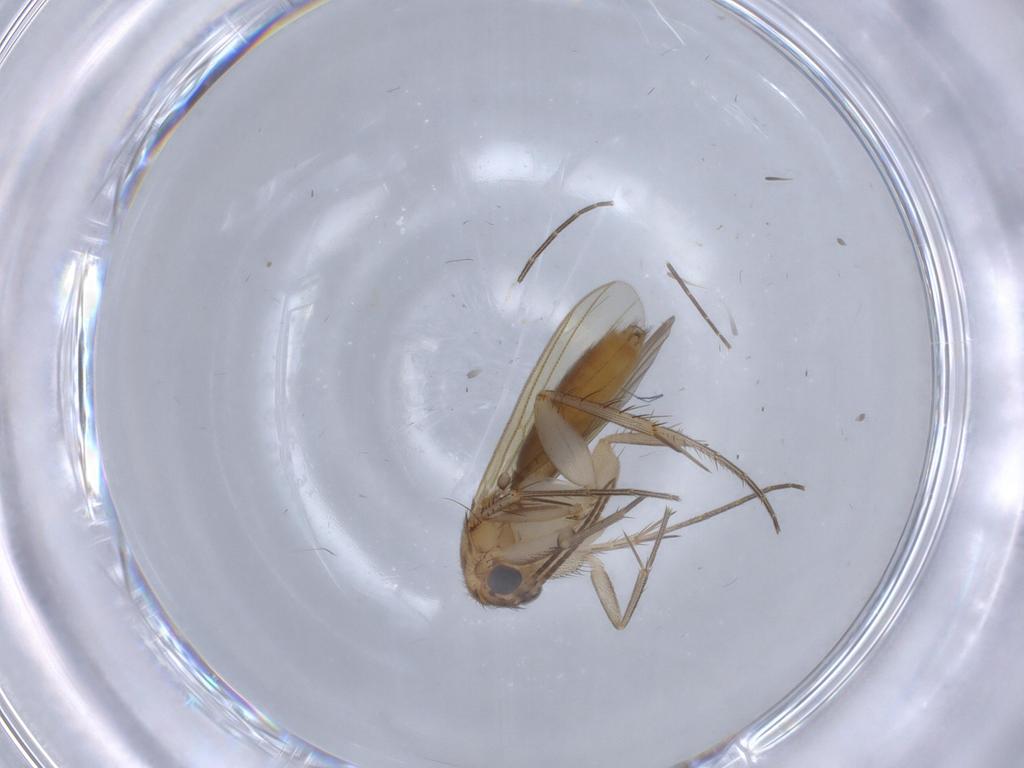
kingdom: Animalia
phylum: Arthropoda
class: Insecta
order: Diptera
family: Mycetophilidae
